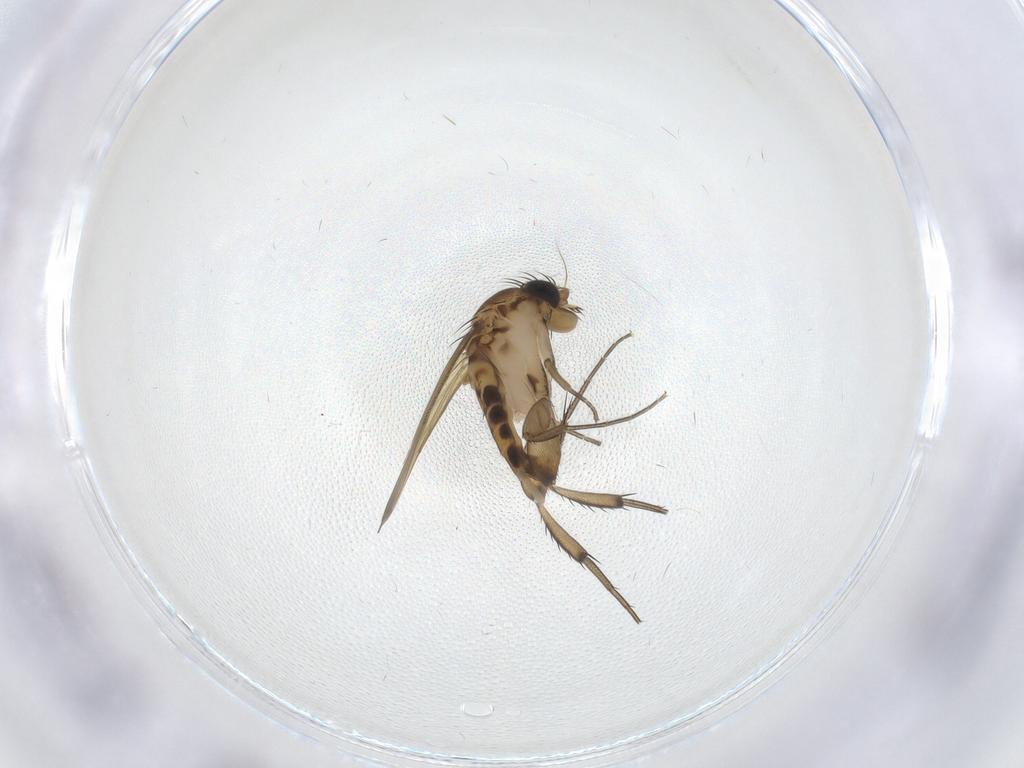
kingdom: Animalia
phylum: Arthropoda
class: Insecta
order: Diptera
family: Phoridae
